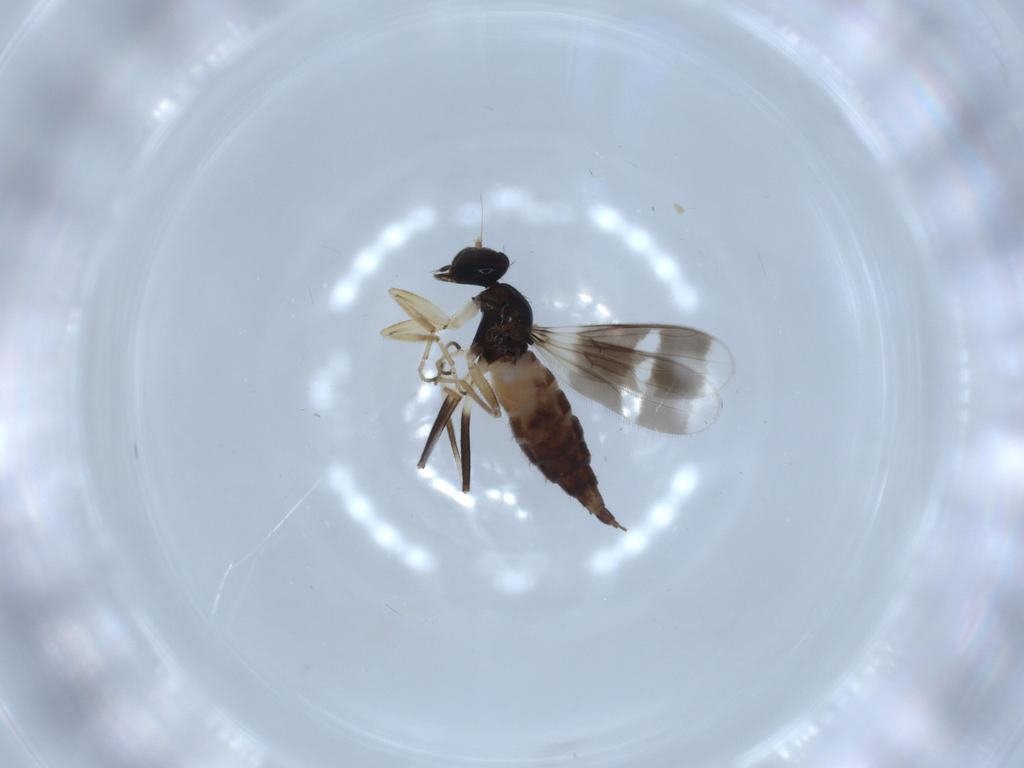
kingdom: Animalia
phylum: Arthropoda
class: Insecta
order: Diptera
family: Hybotidae
